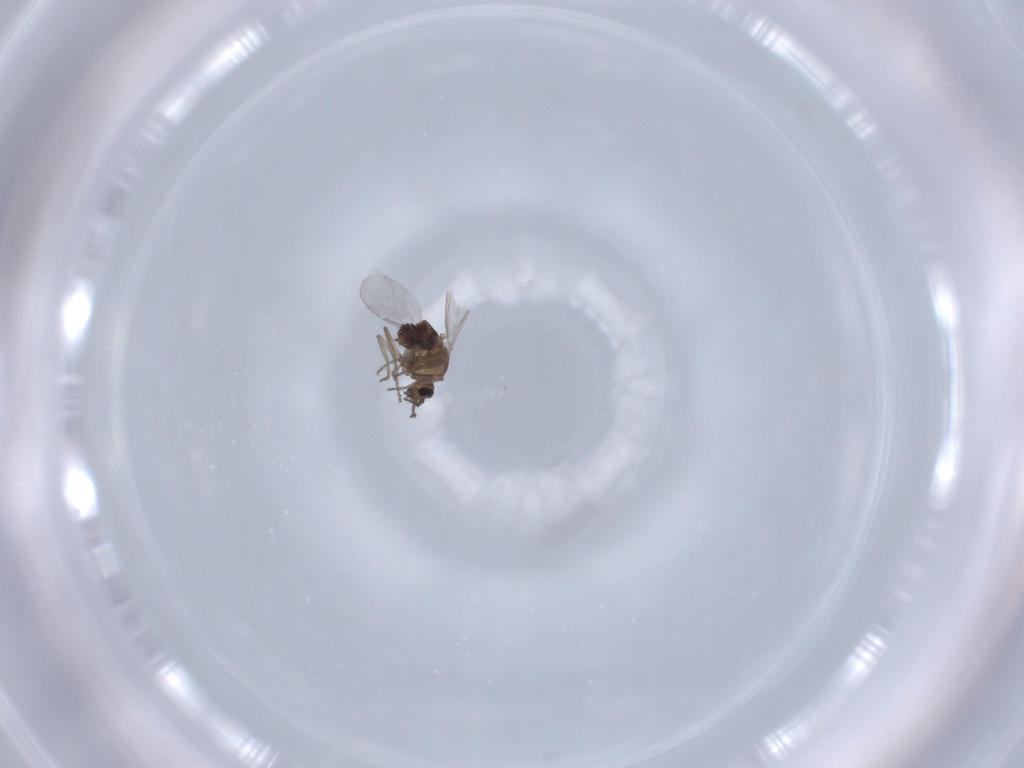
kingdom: Animalia
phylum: Arthropoda
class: Insecta
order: Diptera
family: Ceratopogonidae
